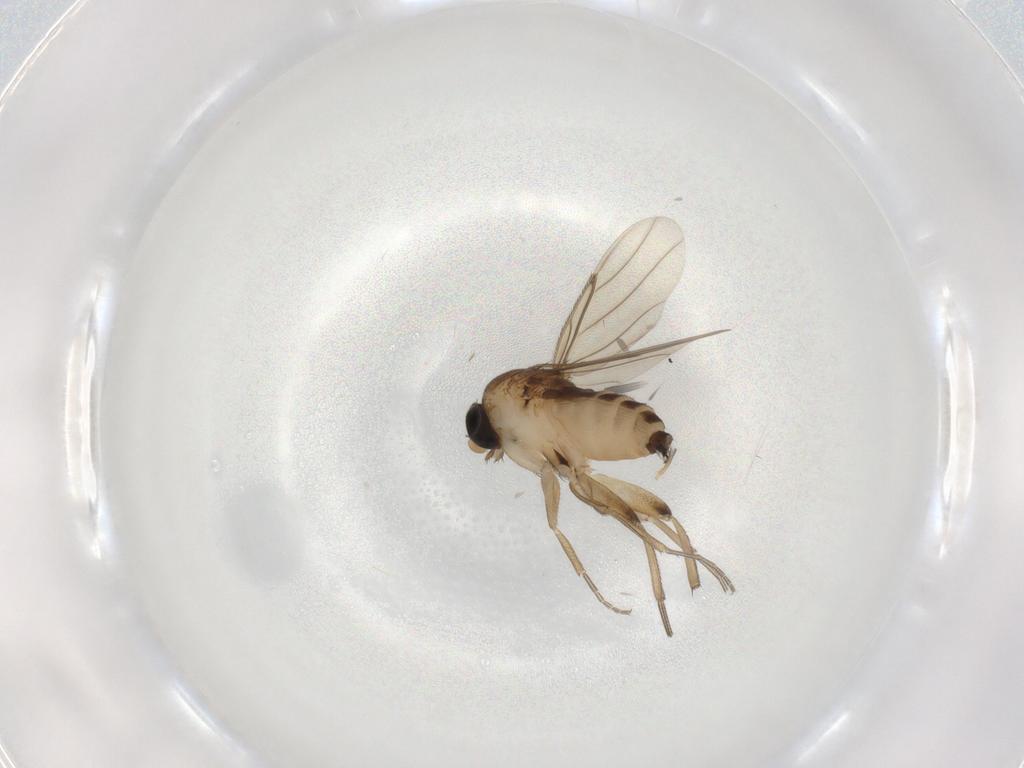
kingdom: Animalia
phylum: Arthropoda
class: Insecta
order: Diptera
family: Phoridae
